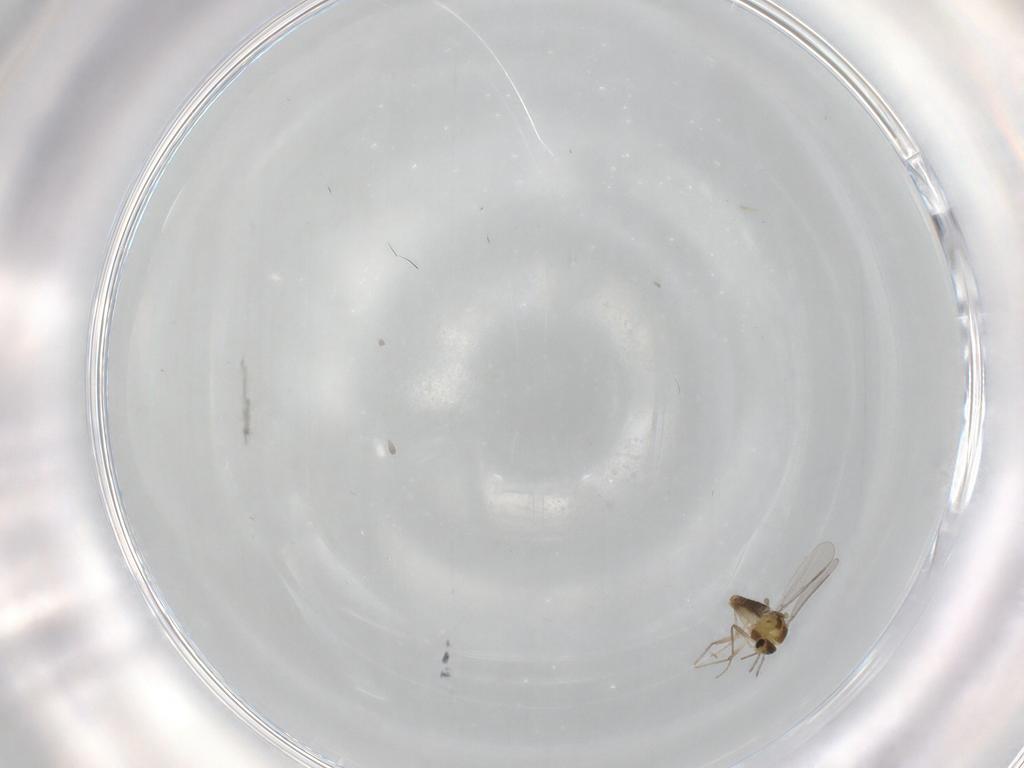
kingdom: Animalia
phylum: Arthropoda
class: Insecta
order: Diptera
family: Chironomidae
